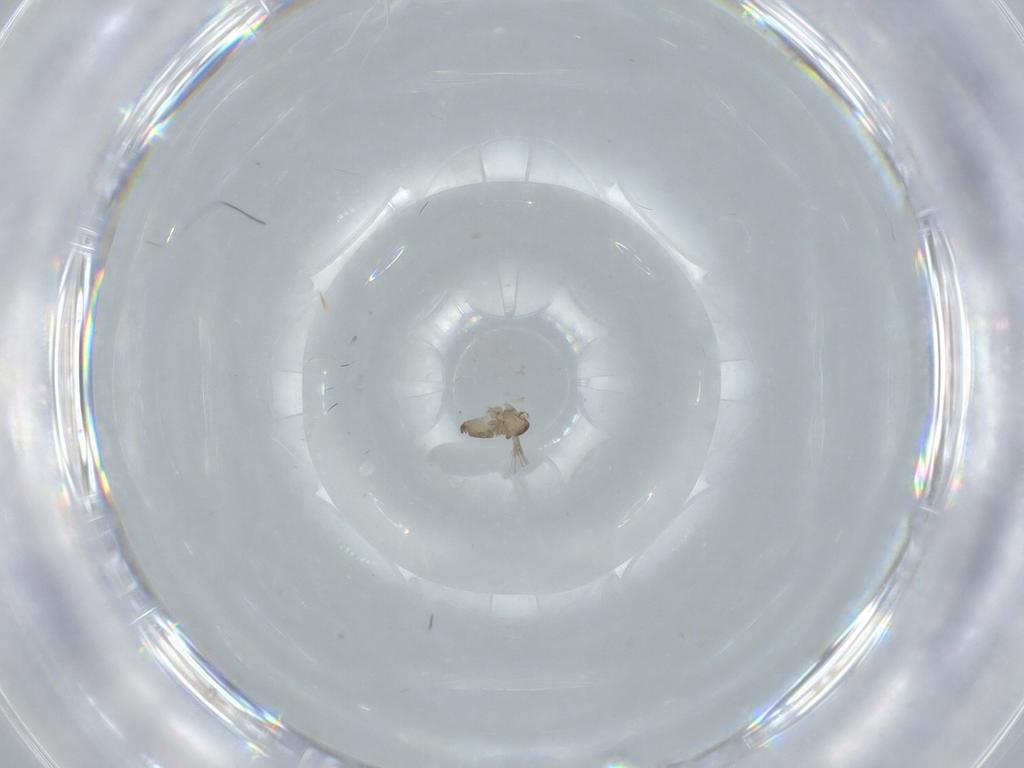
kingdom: Animalia
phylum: Arthropoda
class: Insecta
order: Diptera
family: Cecidomyiidae
